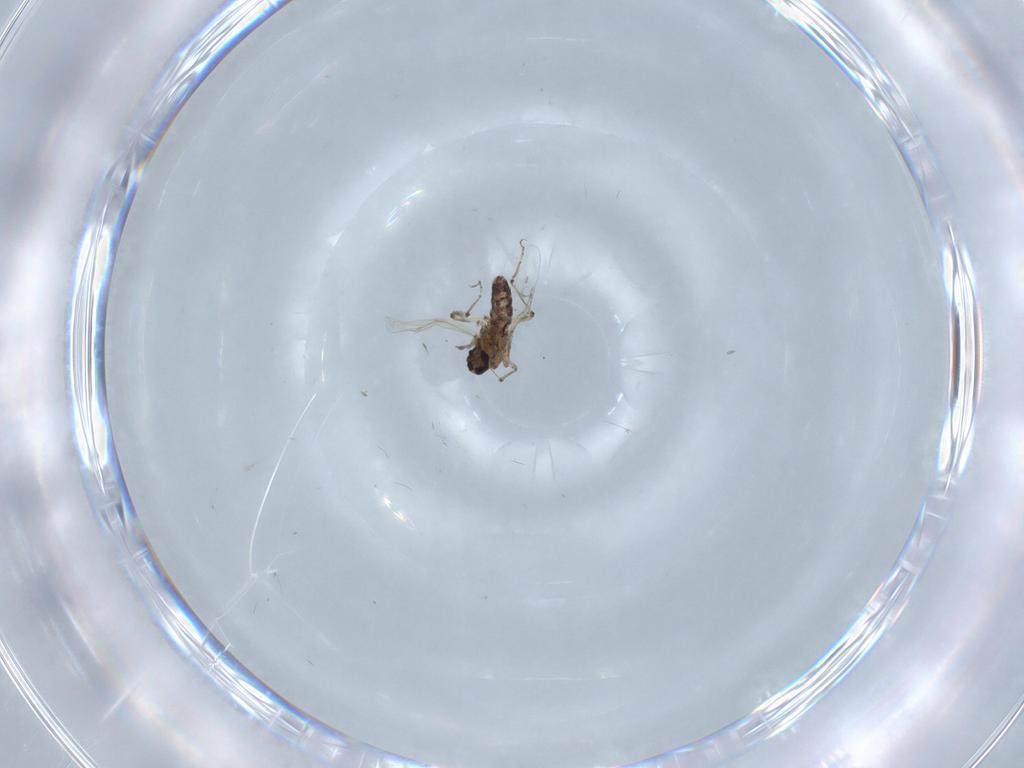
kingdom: Animalia
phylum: Arthropoda
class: Insecta
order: Diptera
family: Ceratopogonidae
